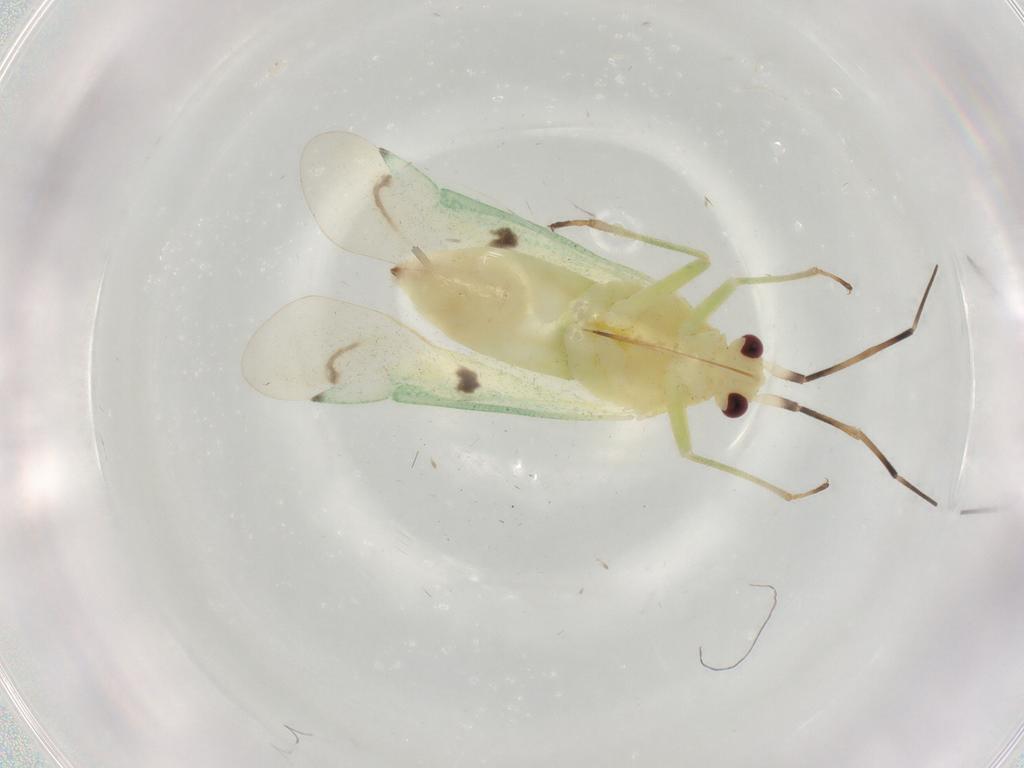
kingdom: Animalia
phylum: Arthropoda
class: Insecta
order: Hemiptera
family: Miridae
